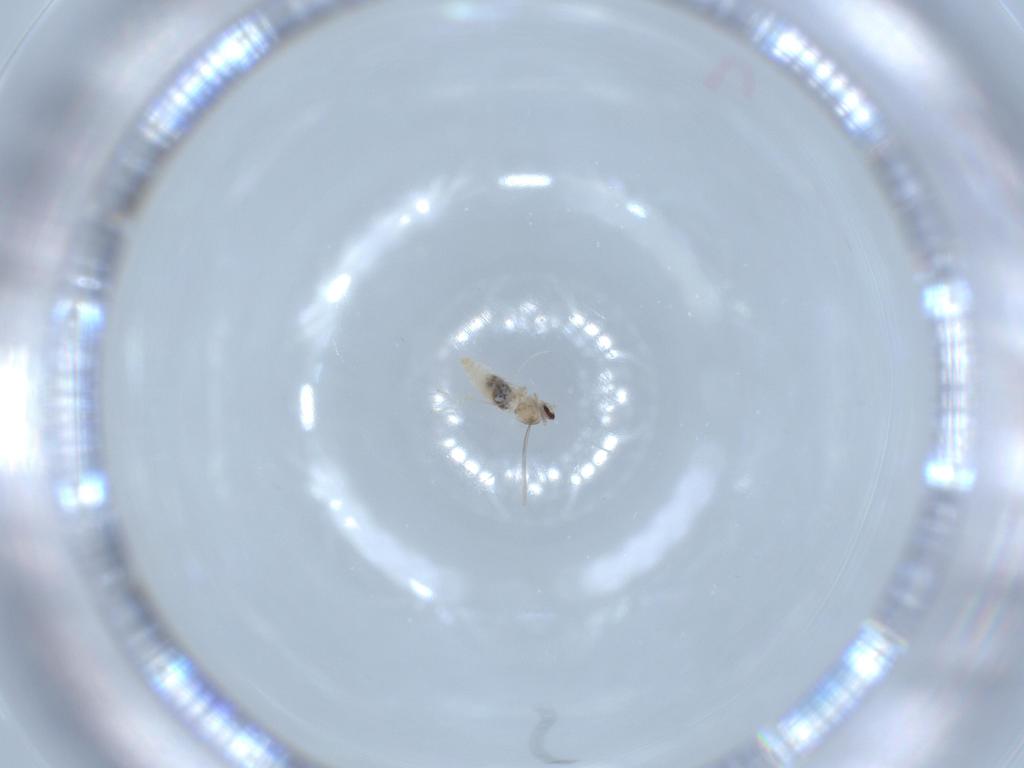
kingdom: Animalia
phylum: Arthropoda
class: Insecta
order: Diptera
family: Cecidomyiidae
